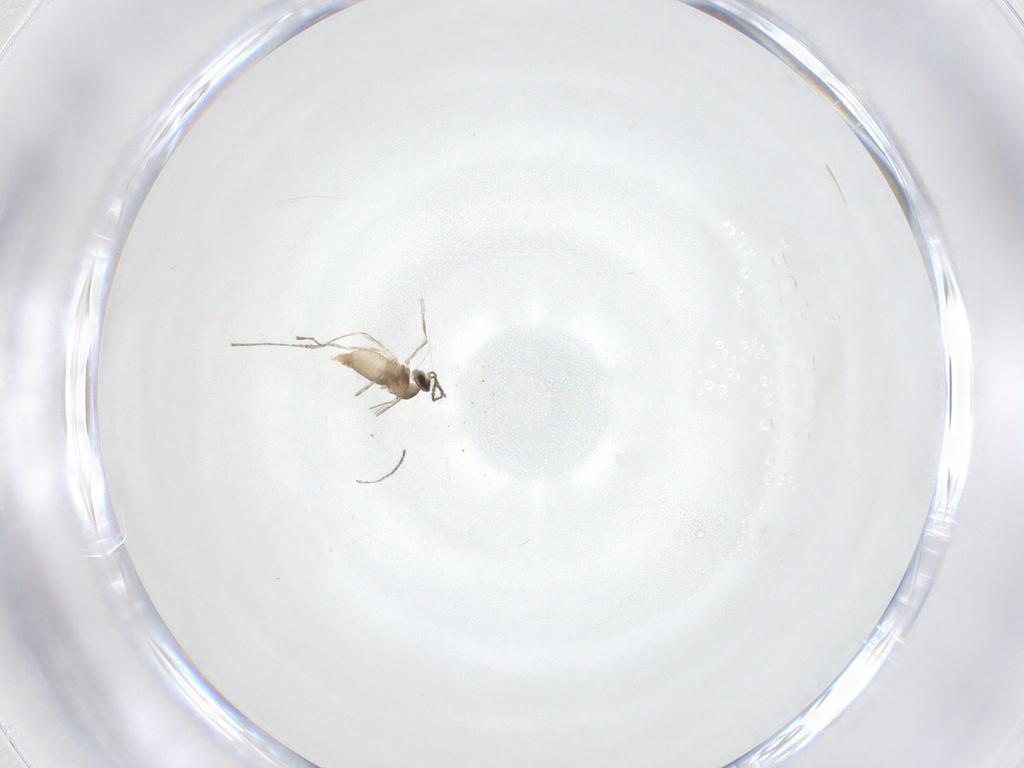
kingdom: Animalia
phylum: Arthropoda
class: Insecta
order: Diptera
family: Cecidomyiidae
